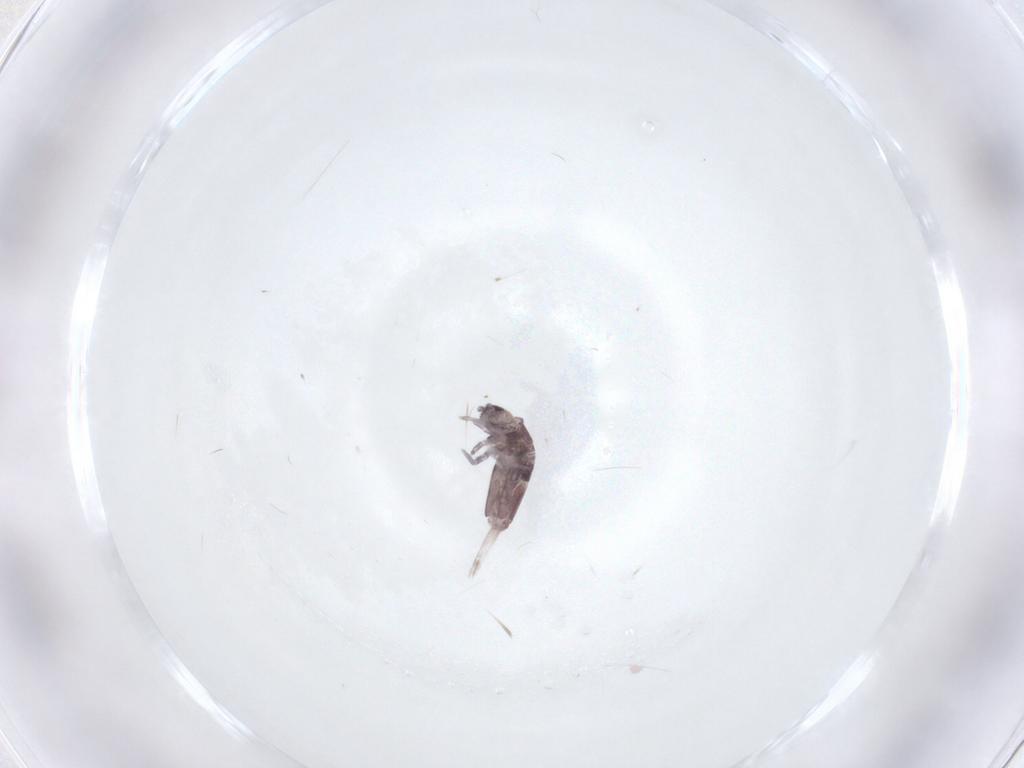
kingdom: Animalia
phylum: Arthropoda
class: Collembola
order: Entomobryomorpha
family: Entomobryidae
